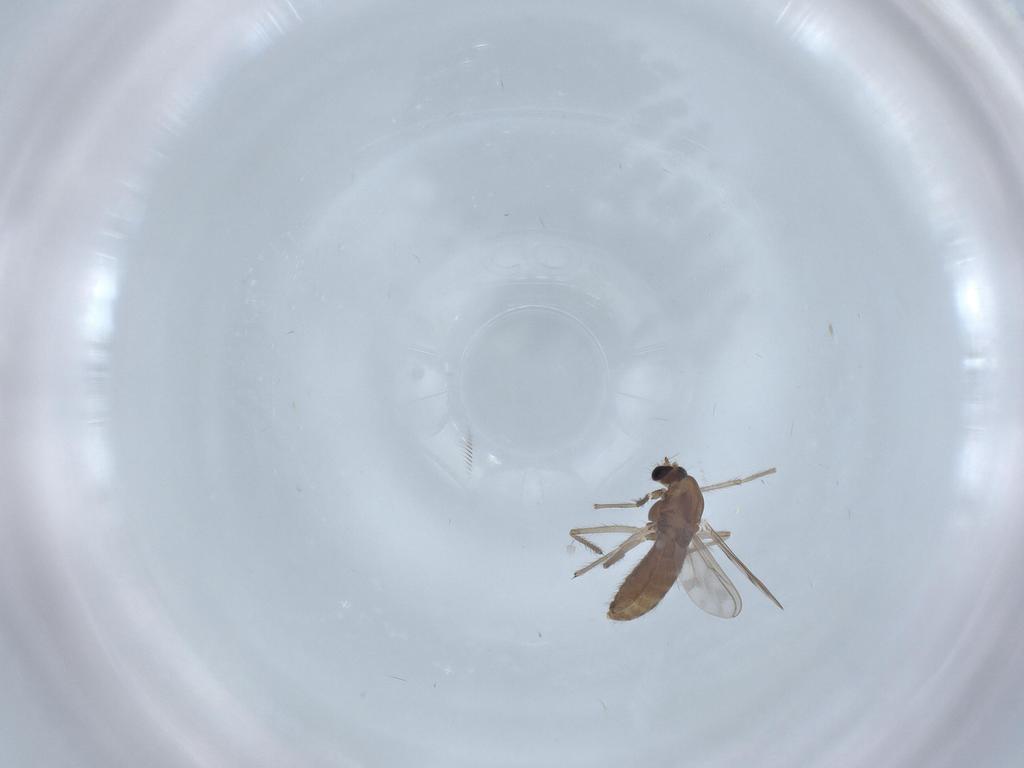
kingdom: Animalia
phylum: Arthropoda
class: Insecta
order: Diptera
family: Chironomidae
